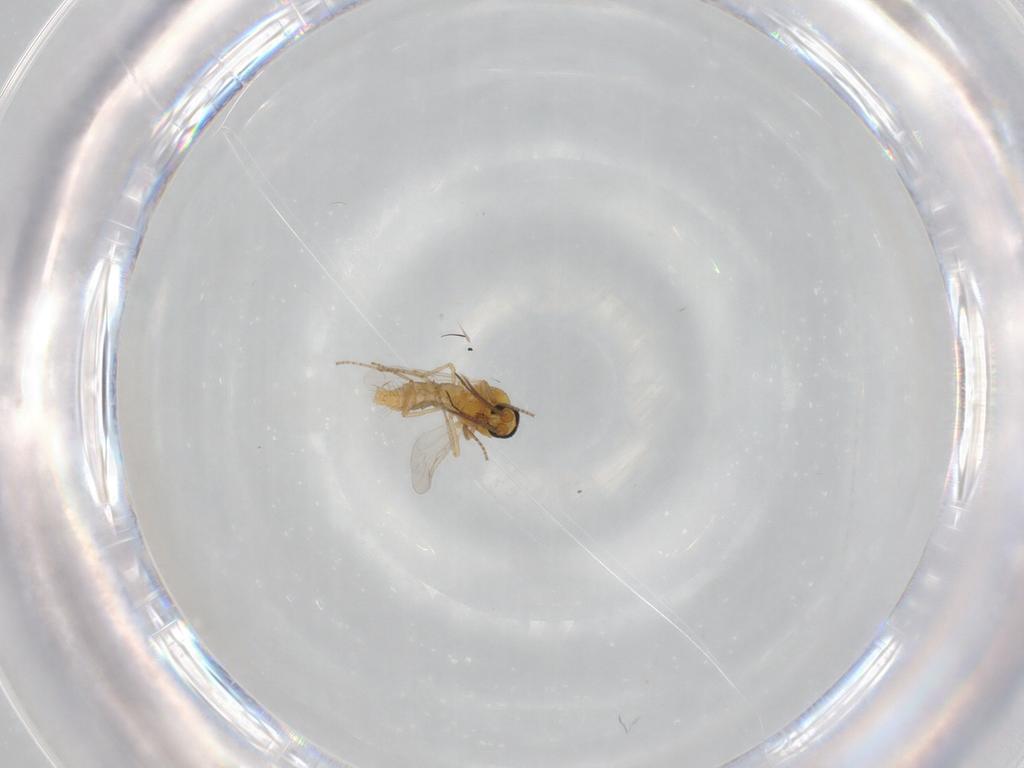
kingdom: Animalia
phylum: Arthropoda
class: Insecta
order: Diptera
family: Ceratopogonidae
